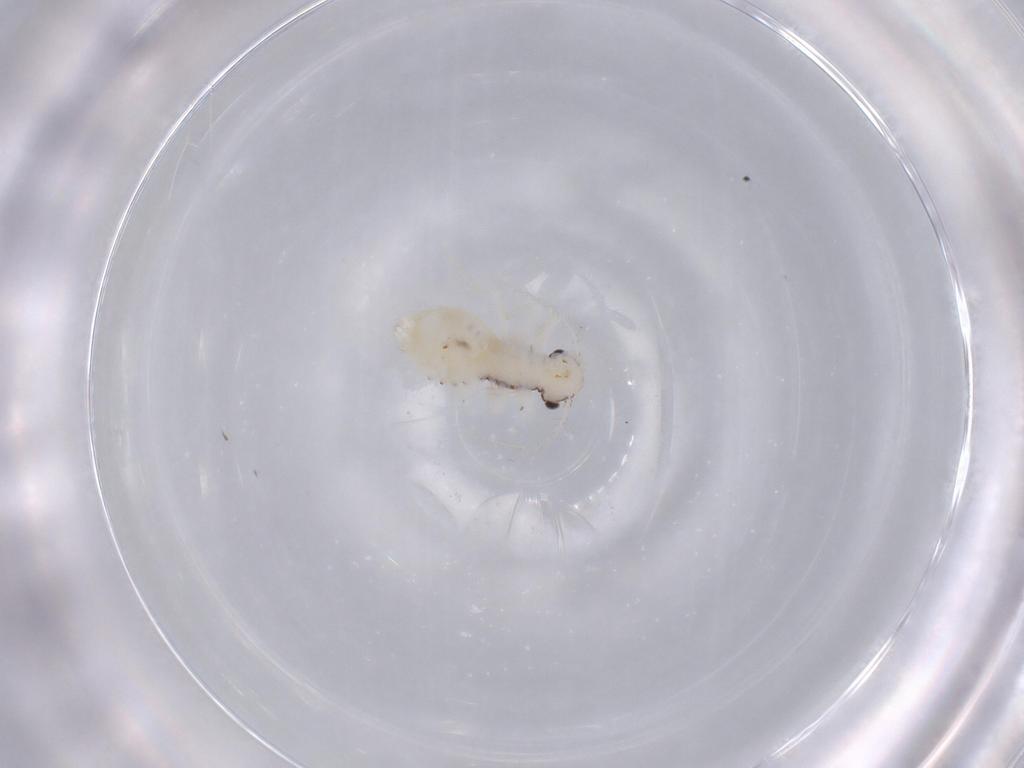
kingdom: Animalia
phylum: Arthropoda
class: Insecta
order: Psocodea
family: Pseudocaeciliidae
